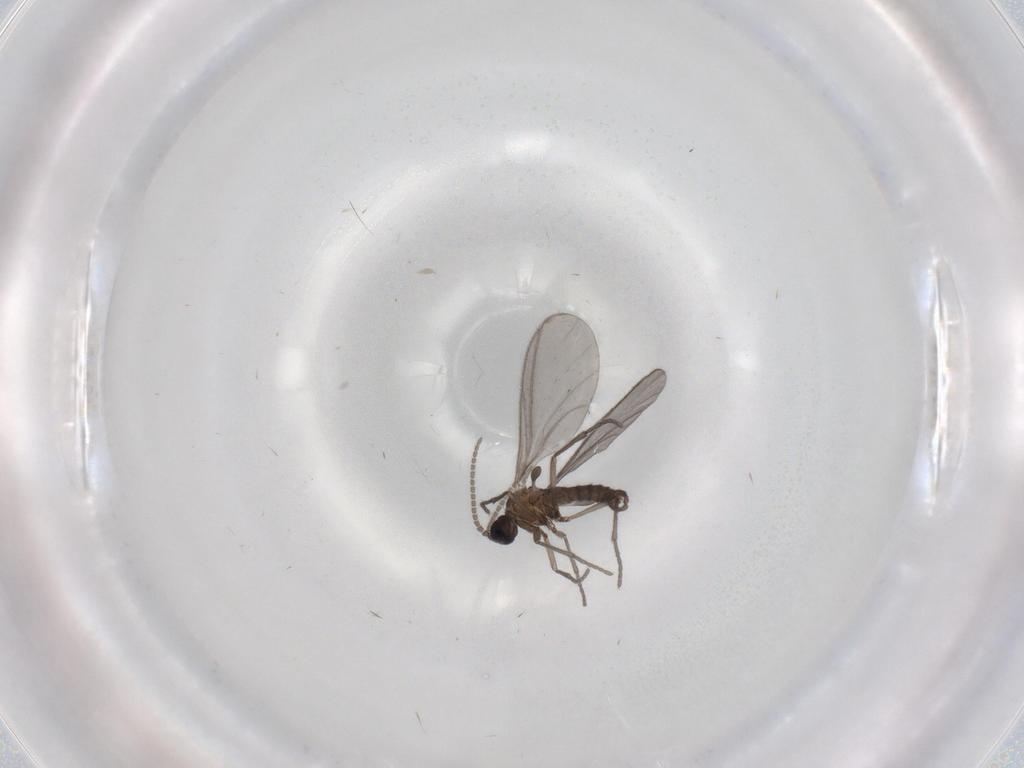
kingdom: Animalia
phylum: Arthropoda
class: Insecta
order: Diptera
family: Sciaridae
